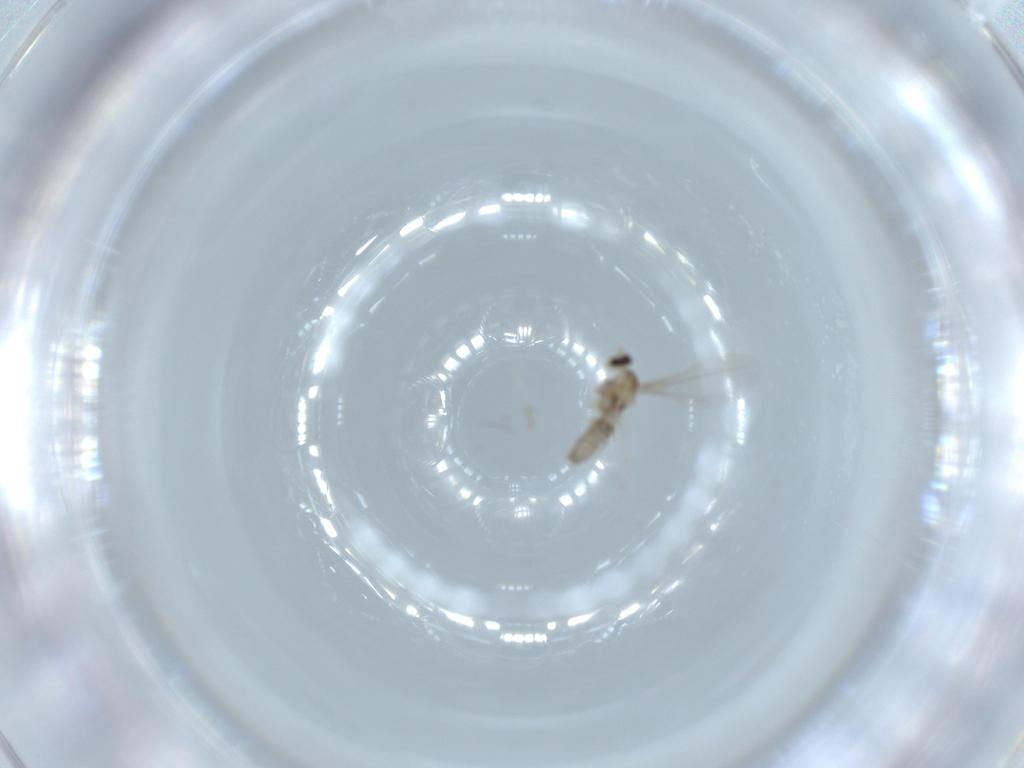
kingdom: Animalia
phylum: Arthropoda
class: Insecta
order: Diptera
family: Cecidomyiidae
